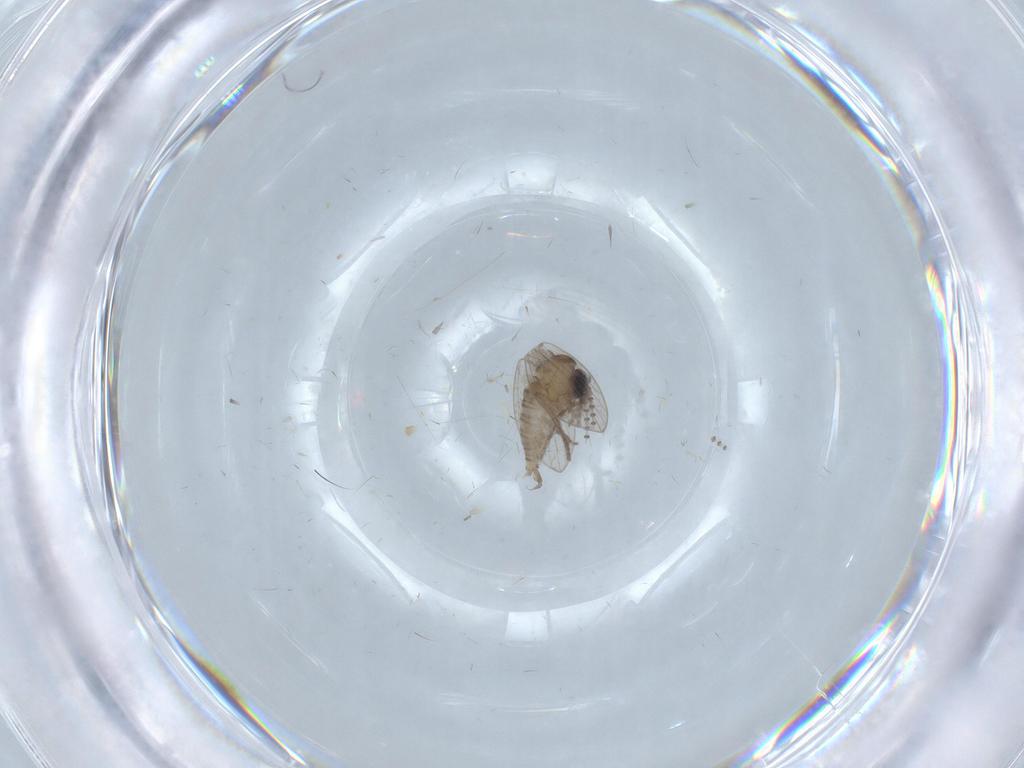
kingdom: Animalia
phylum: Arthropoda
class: Insecta
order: Diptera
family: Psychodidae
